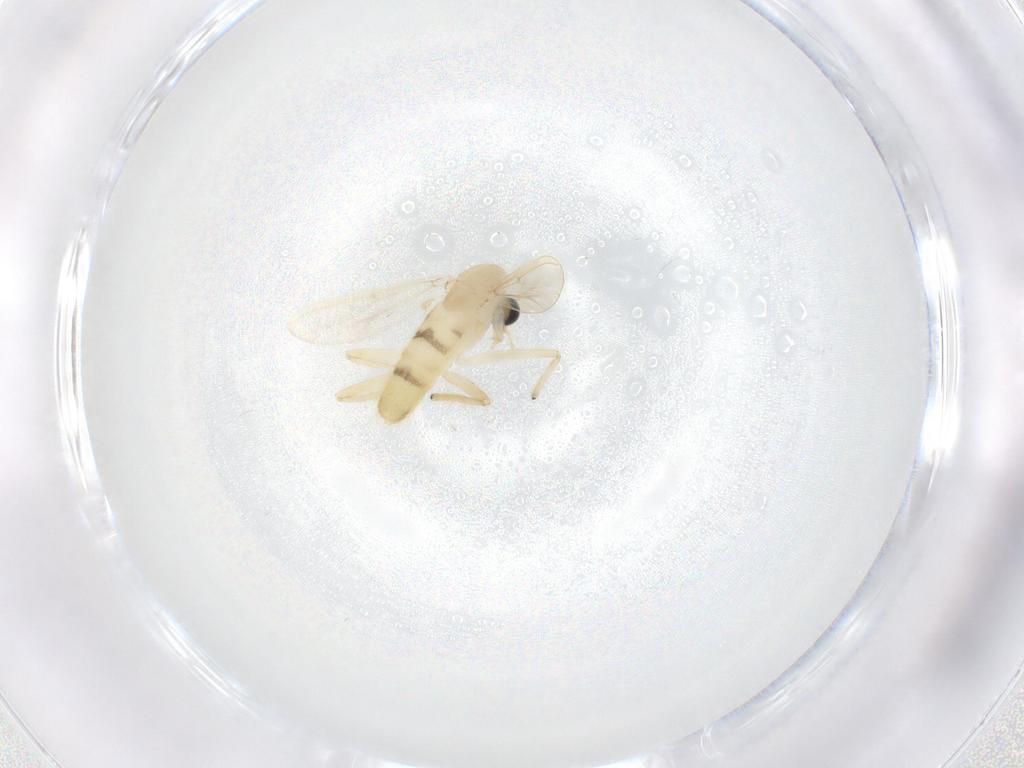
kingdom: Animalia
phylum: Arthropoda
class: Insecta
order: Diptera
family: Chironomidae
